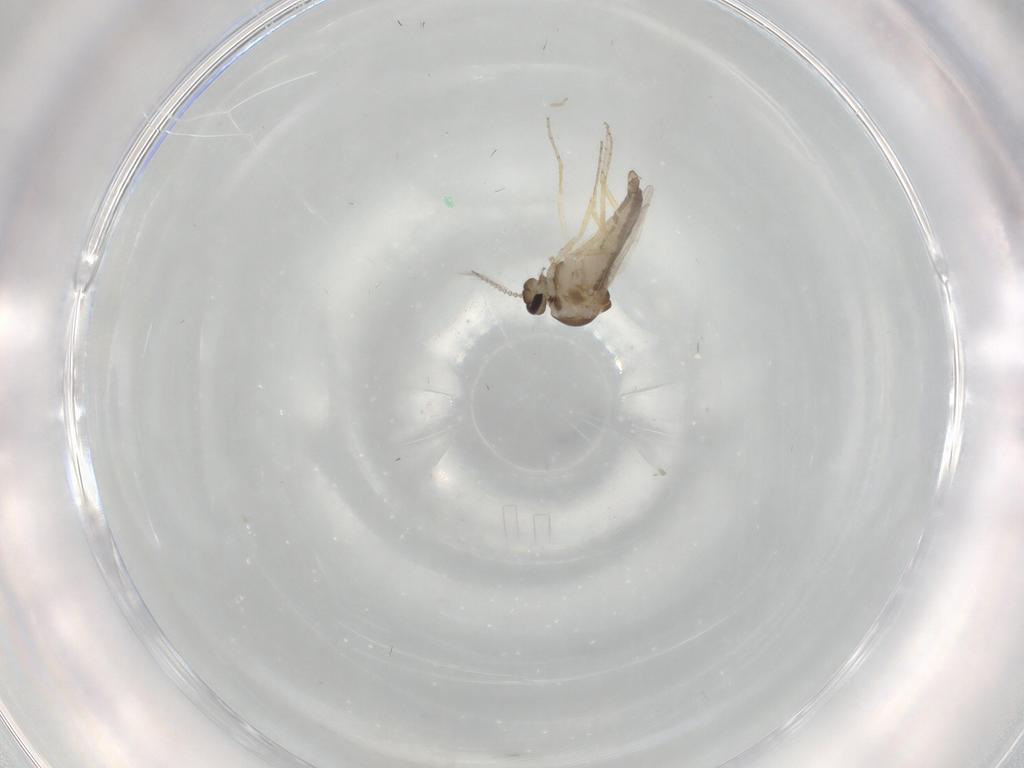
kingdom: Animalia
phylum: Arthropoda
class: Insecta
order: Diptera
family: Ceratopogonidae
